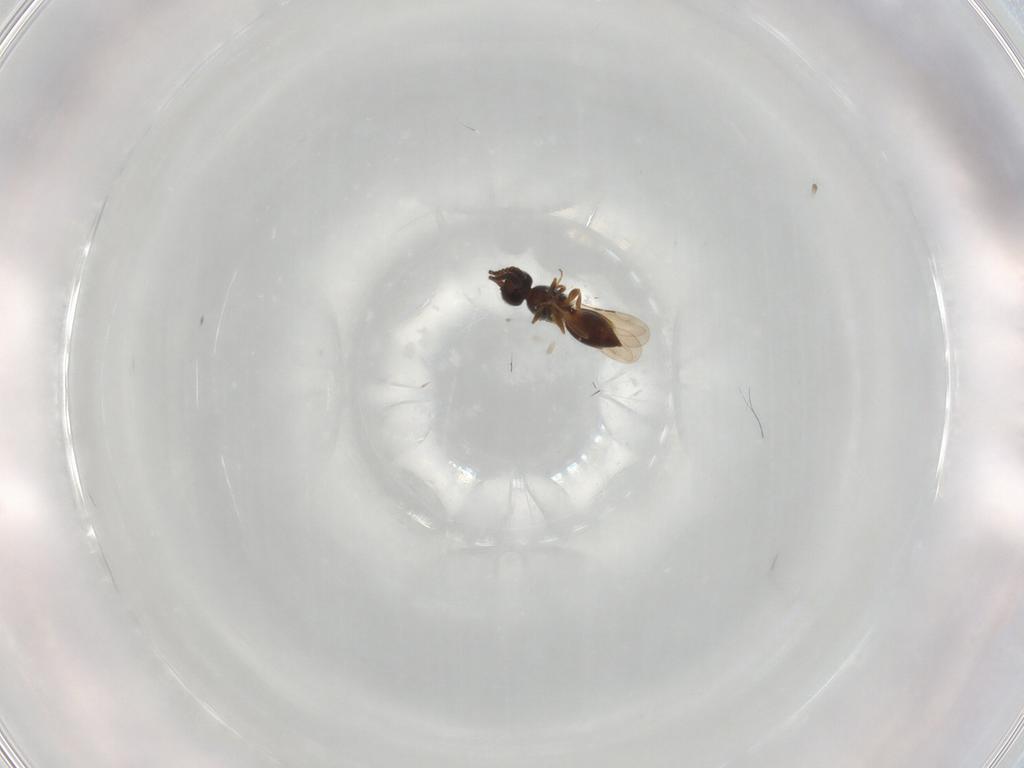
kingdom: Animalia
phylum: Arthropoda
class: Insecta
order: Hymenoptera
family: Ceraphronidae
